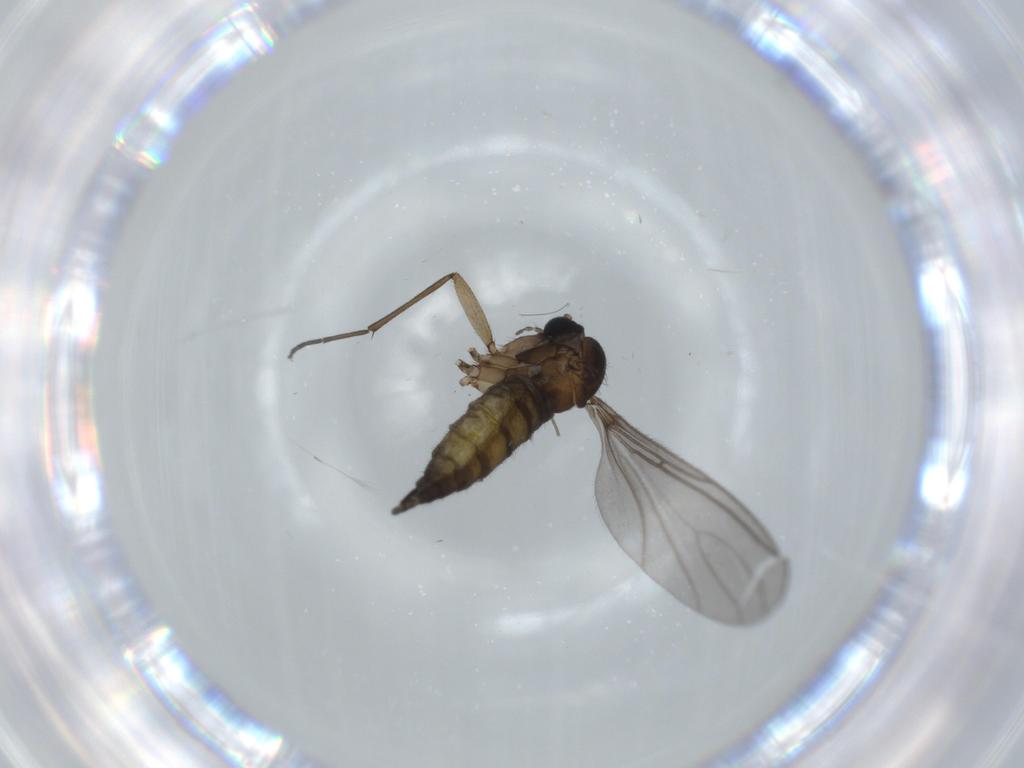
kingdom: Animalia
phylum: Arthropoda
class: Insecta
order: Diptera
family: Sciaridae
